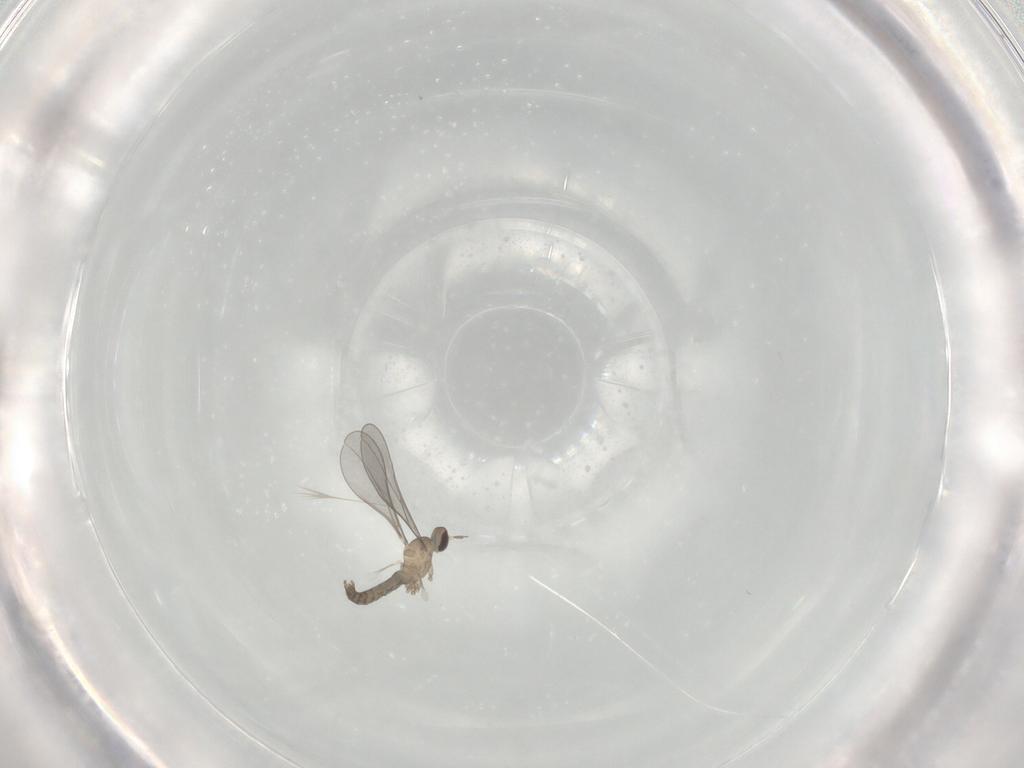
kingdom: Animalia
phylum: Arthropoda
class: Insecta
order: Diptera
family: Cecidomyiidae
